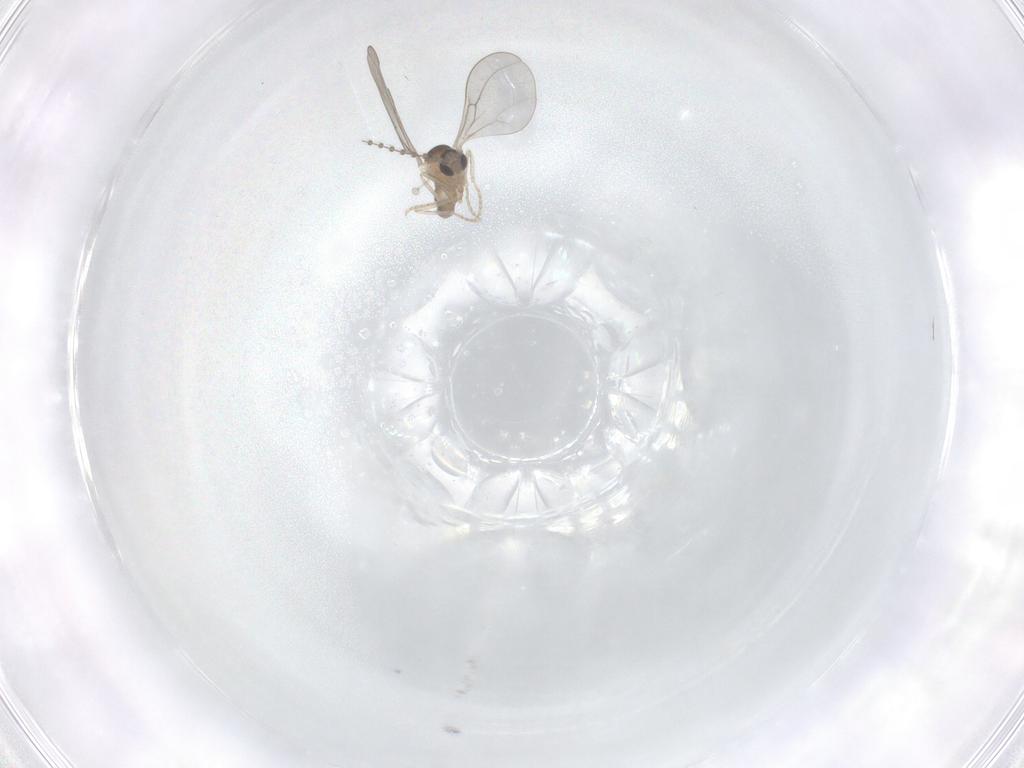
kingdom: Animalia
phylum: Arthropoda
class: Insecta
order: Diptera
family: Cecidomyiidae
